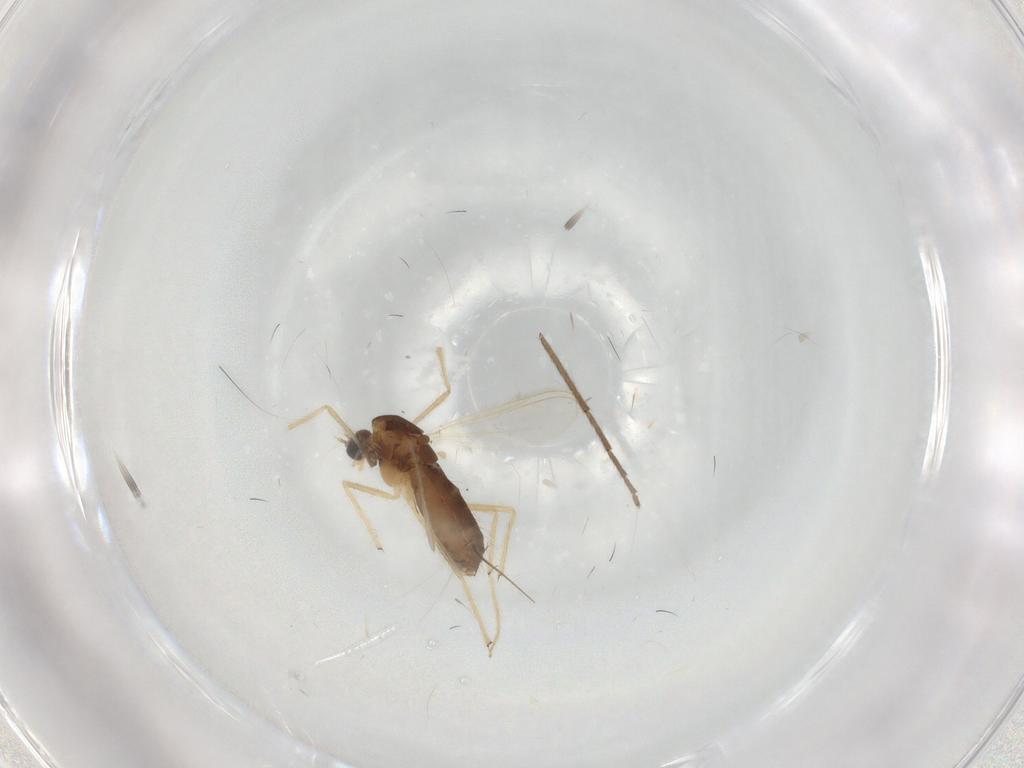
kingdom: Animalia
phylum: Arthropoda
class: Insecta
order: Diptera
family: Chironomidae
